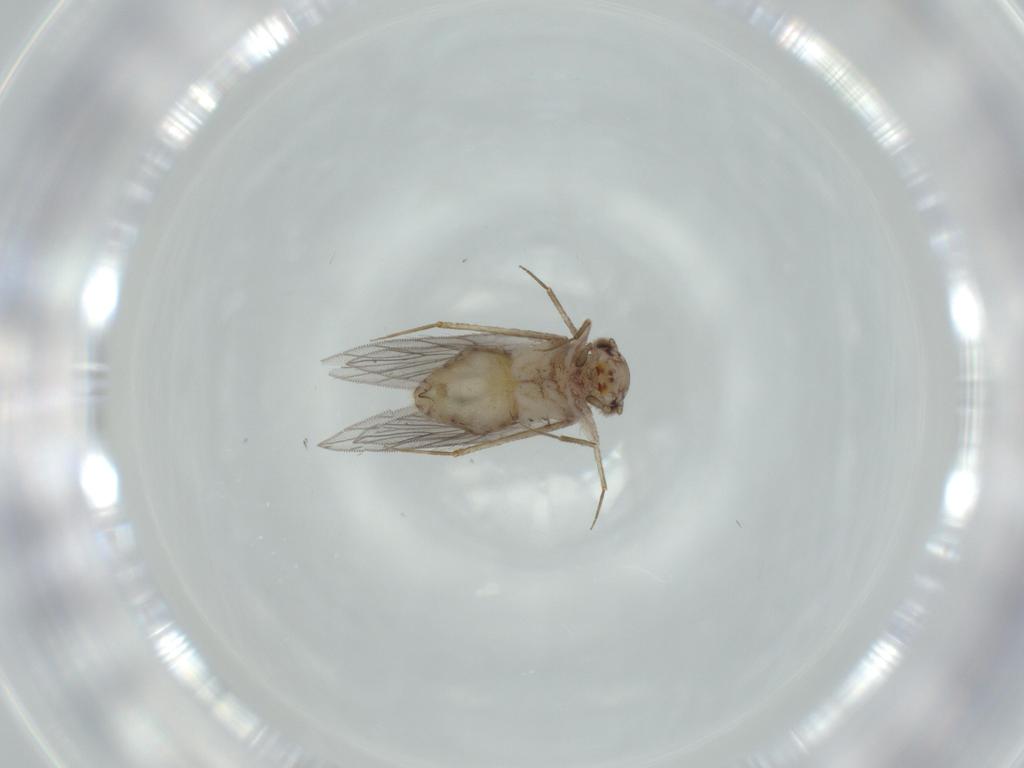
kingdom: Animalia
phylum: Arthropoda
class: Insecta
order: Psocodea
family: Lepidopsocidae
